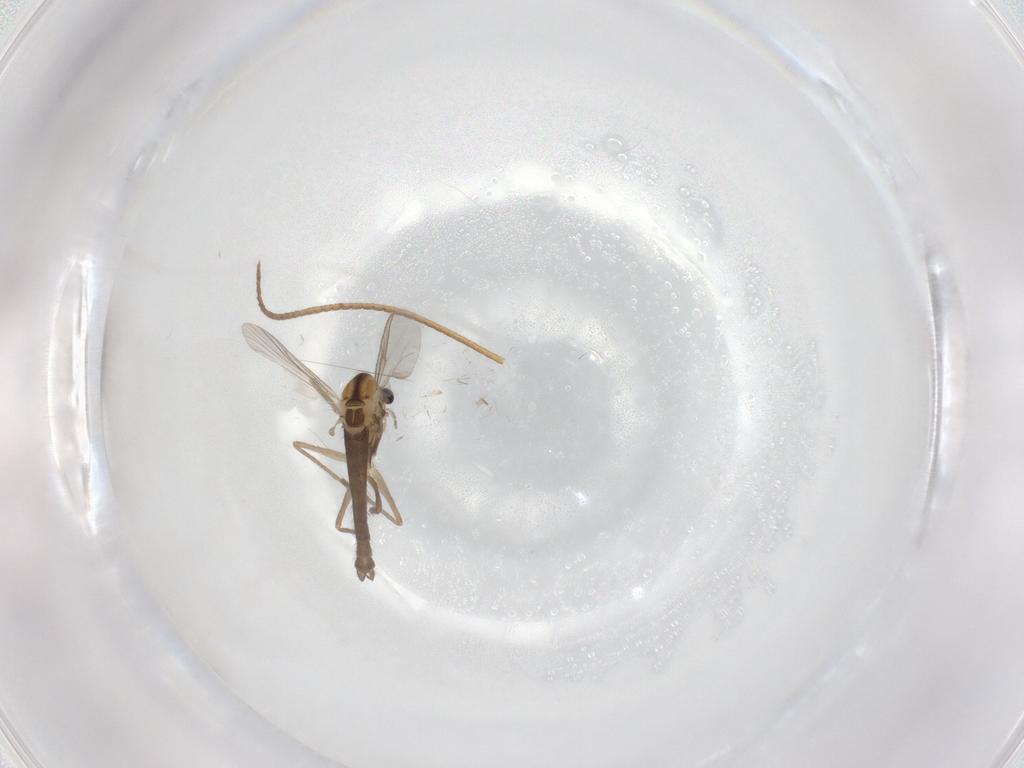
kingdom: Animalia
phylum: Arthropoda
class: Insecta
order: Diptera
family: Chironomidae
